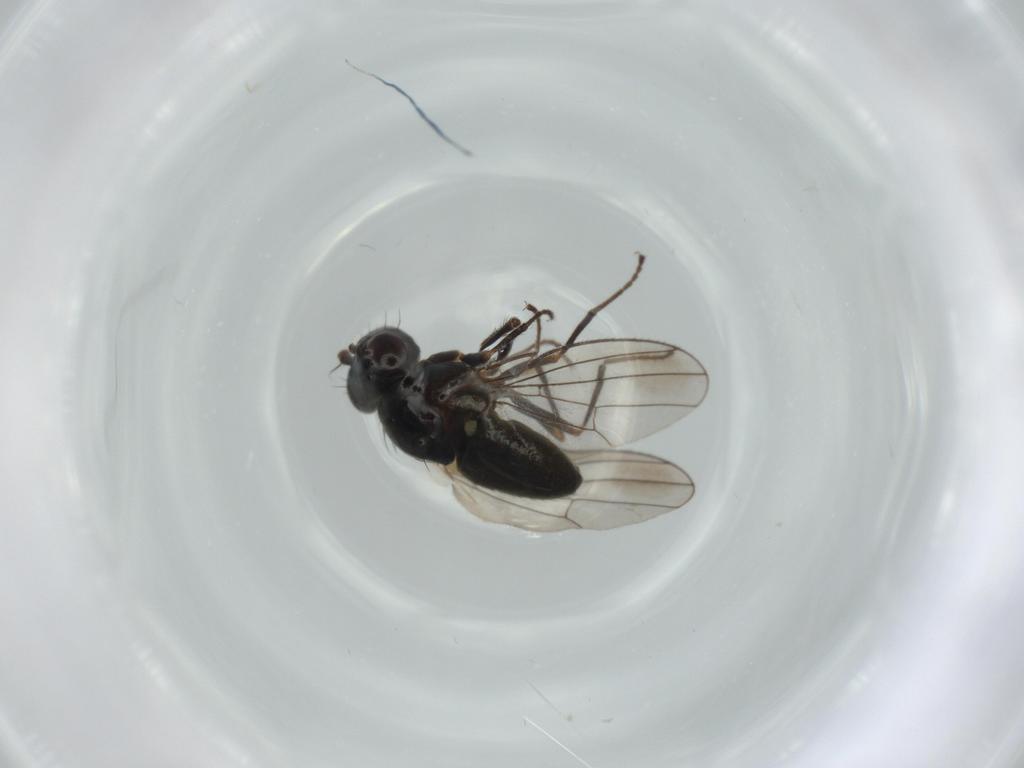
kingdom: Animalia
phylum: Arthropoda
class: Insecta
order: Diptera
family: Ephydridae
